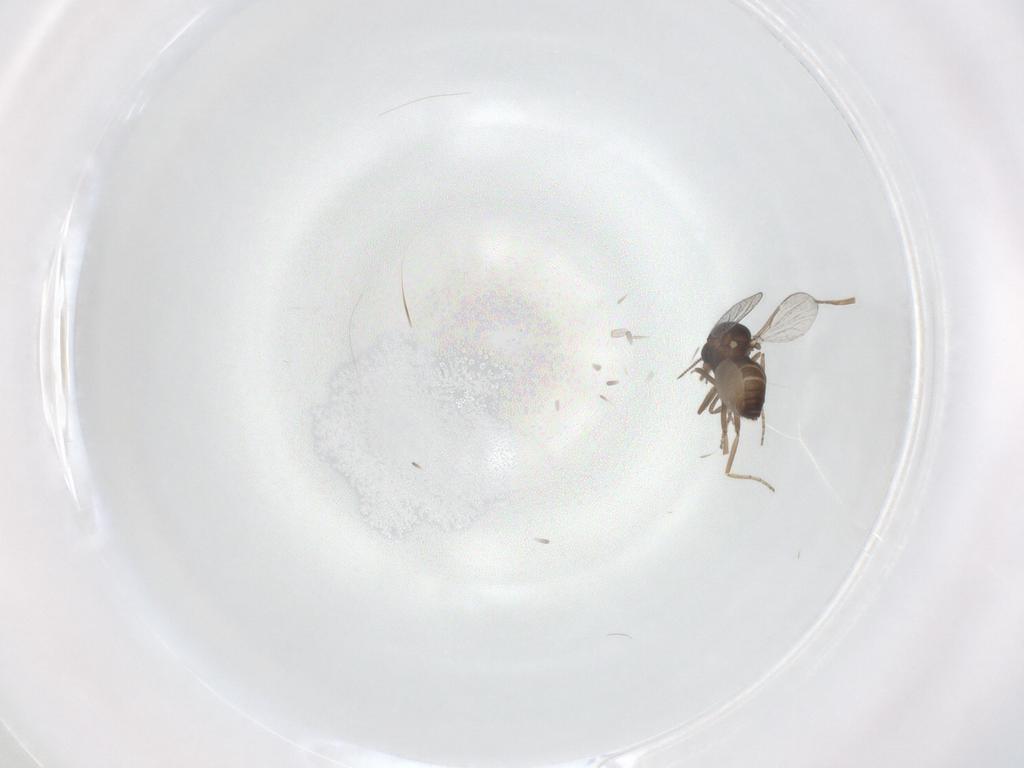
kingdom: Animalia
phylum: Arthropoda
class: Insecta
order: Diptera
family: Ceratopogonidae
